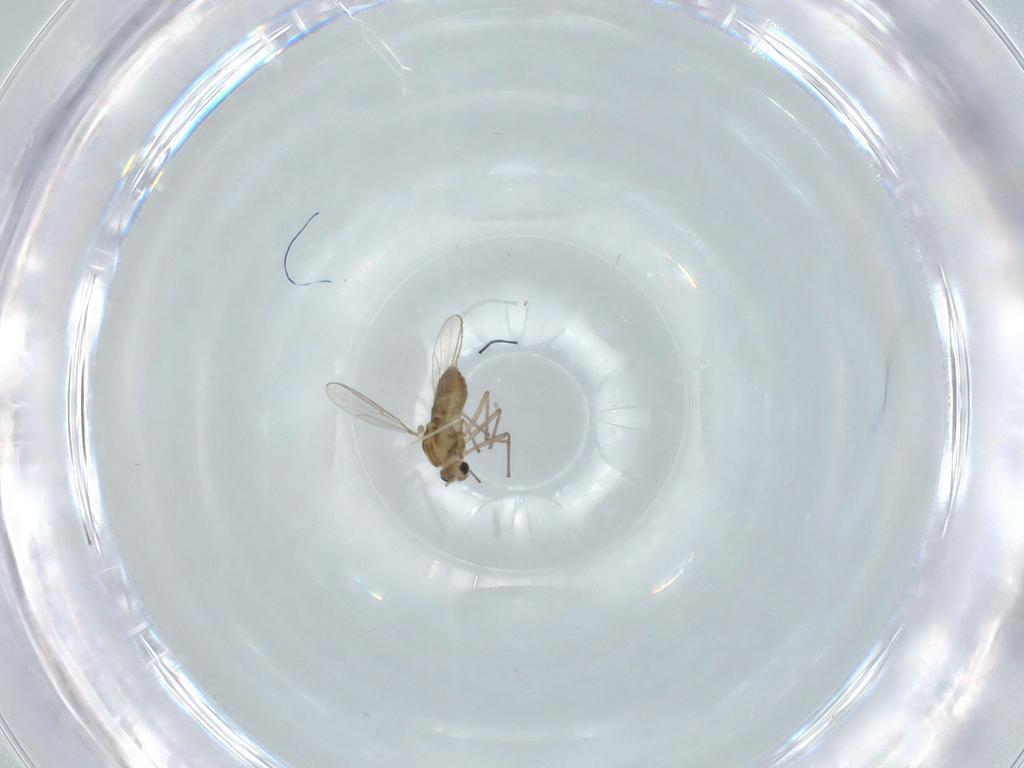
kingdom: Animalia
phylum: Arthropoda
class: Insecta
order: Diptera
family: Chironomidae
